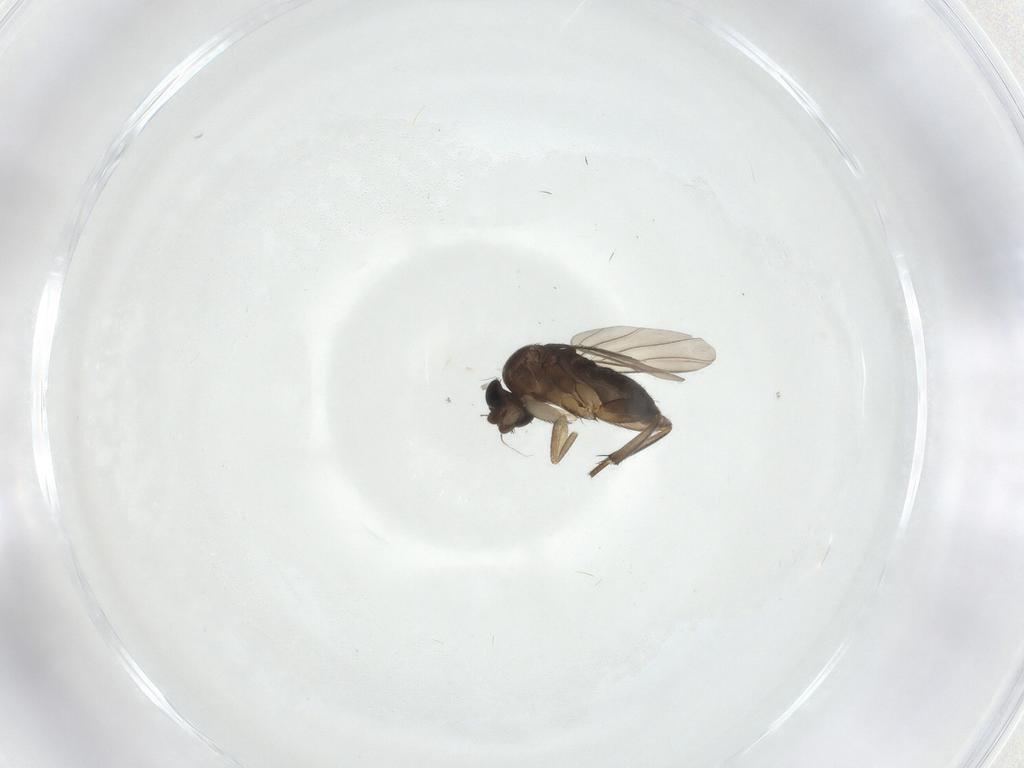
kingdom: Animalia
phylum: Arthropoda
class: Insecta
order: Diptera
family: Phoridae
